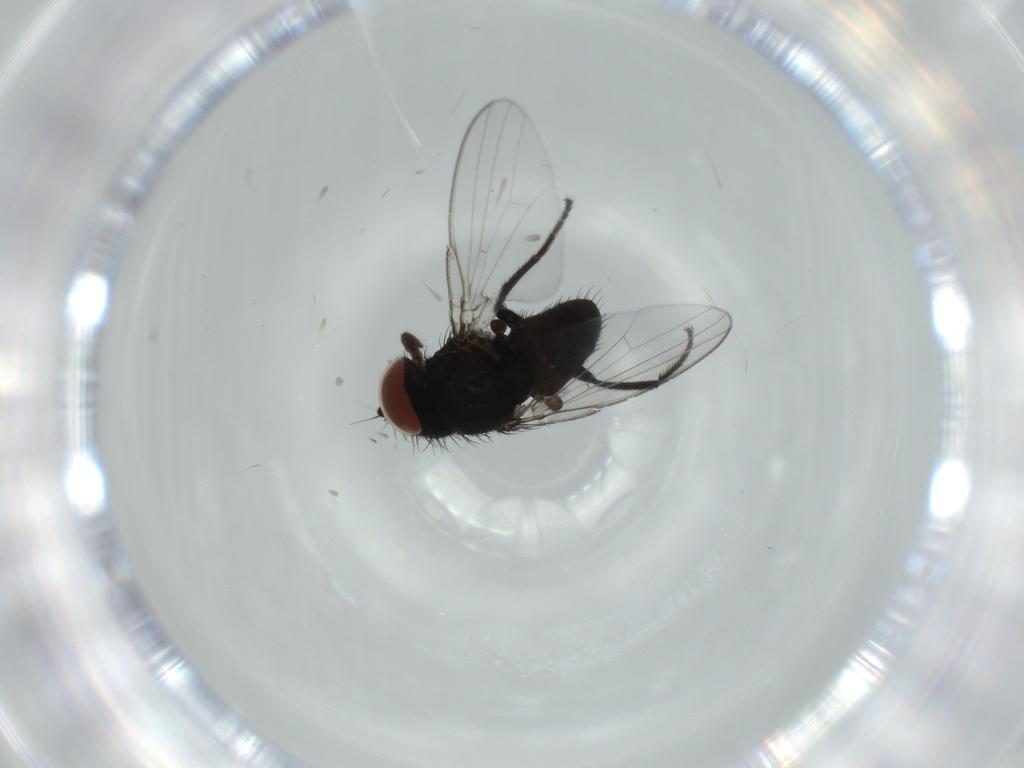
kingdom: Animalia
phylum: Arthropoda
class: Insecta
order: Diptera
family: Milichiidae
